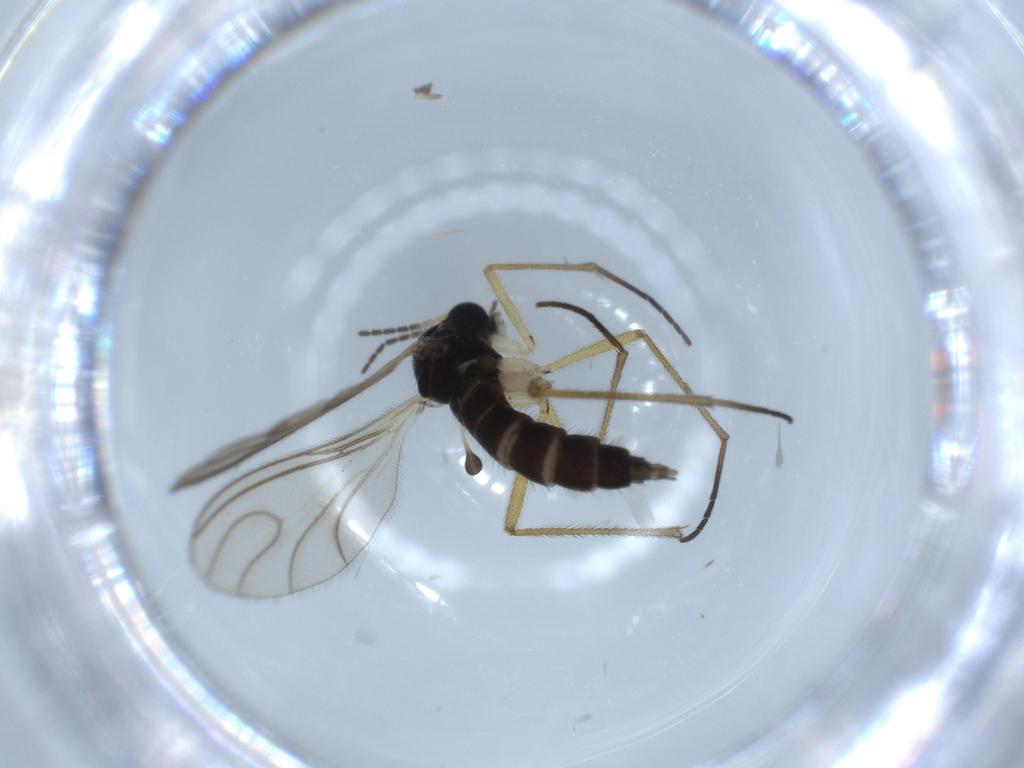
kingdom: Animalia
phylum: Arthropoda
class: Insecta
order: Diptera
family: Sciaridae
